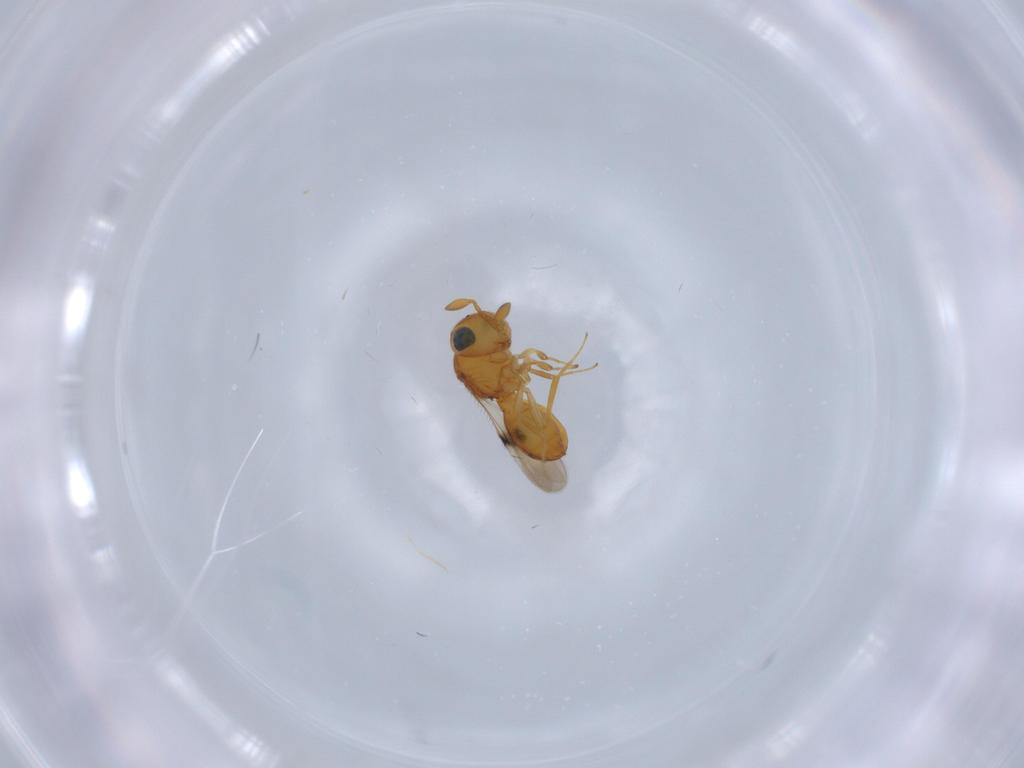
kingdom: Animalia
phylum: Arthropoda
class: Insecta
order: Hymenoptera
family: Scelionidae
